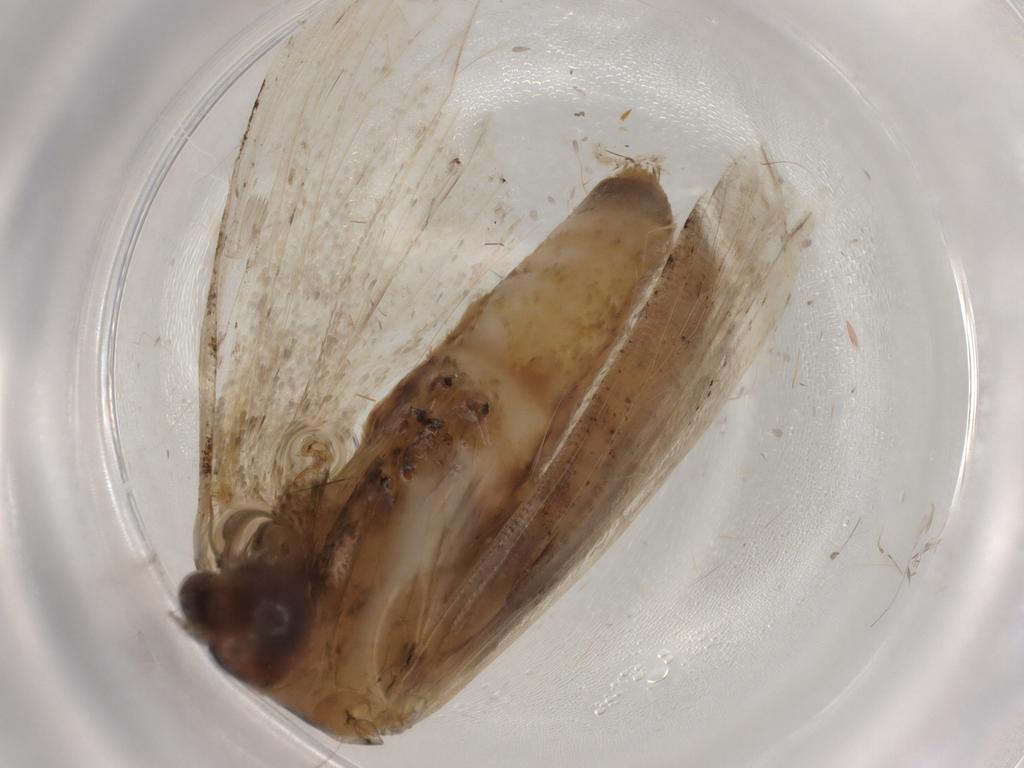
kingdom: Animalia
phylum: Arthropoda
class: Insecta
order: Lepidoptera
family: Erebidae
